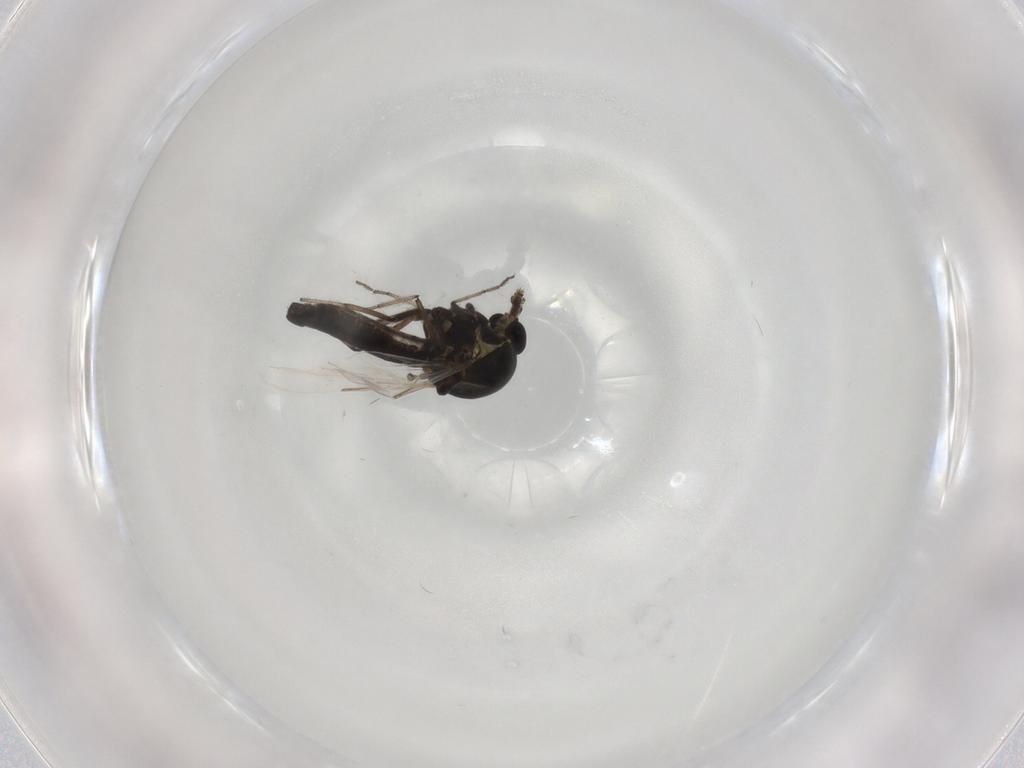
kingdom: Animalia
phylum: Arthropoda
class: Insecta
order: Diptera
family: Ceratopogonidae
